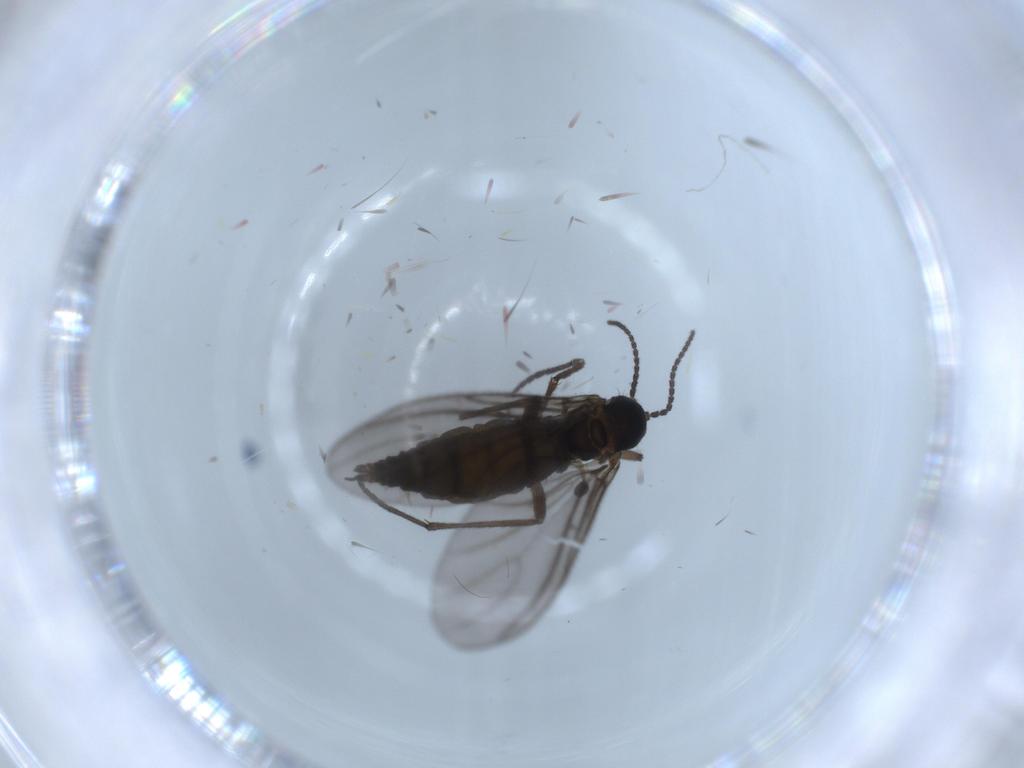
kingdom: Animalia
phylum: Arthropoda
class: Insecta
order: Diptera
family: Sciaridae
